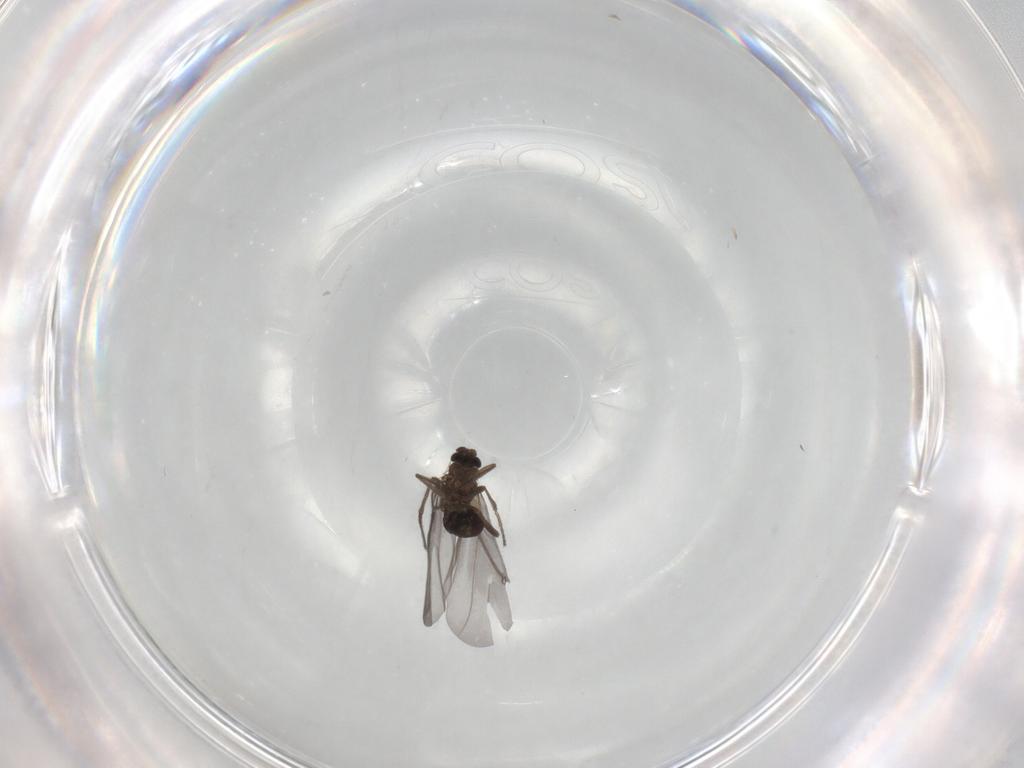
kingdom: Animalia
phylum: Arthropoda
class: Insecta
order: Diptera
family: Phoridae
